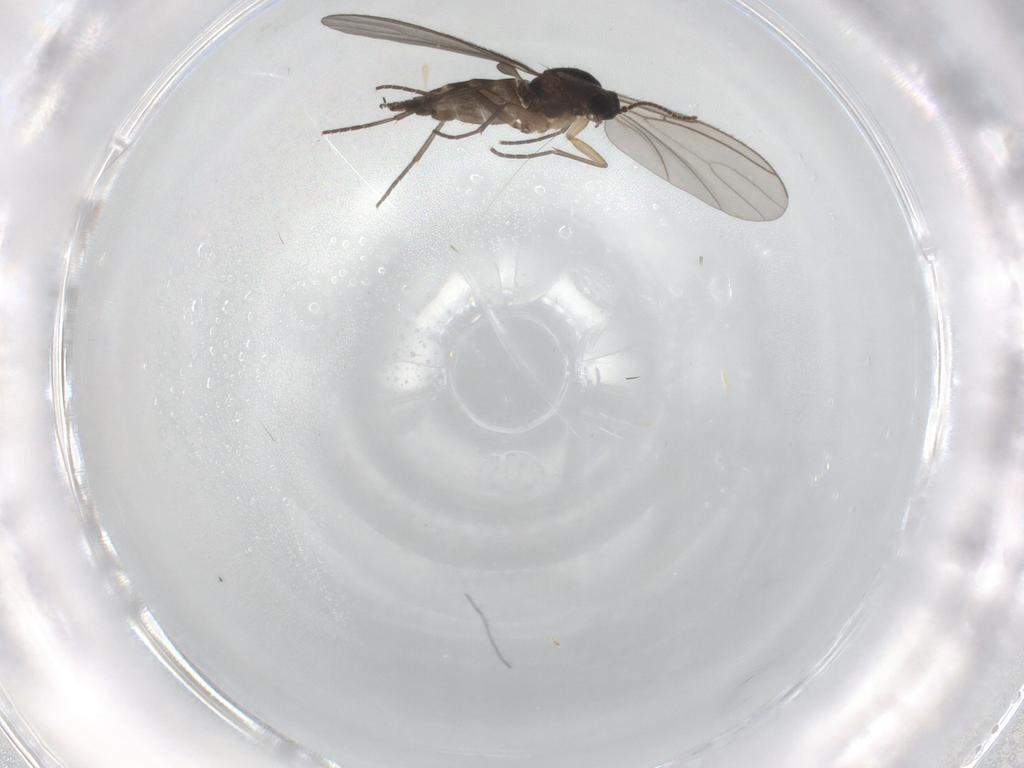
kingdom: Animalia
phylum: Arthropoda
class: Insecta
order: Diptera
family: Sciaridae
